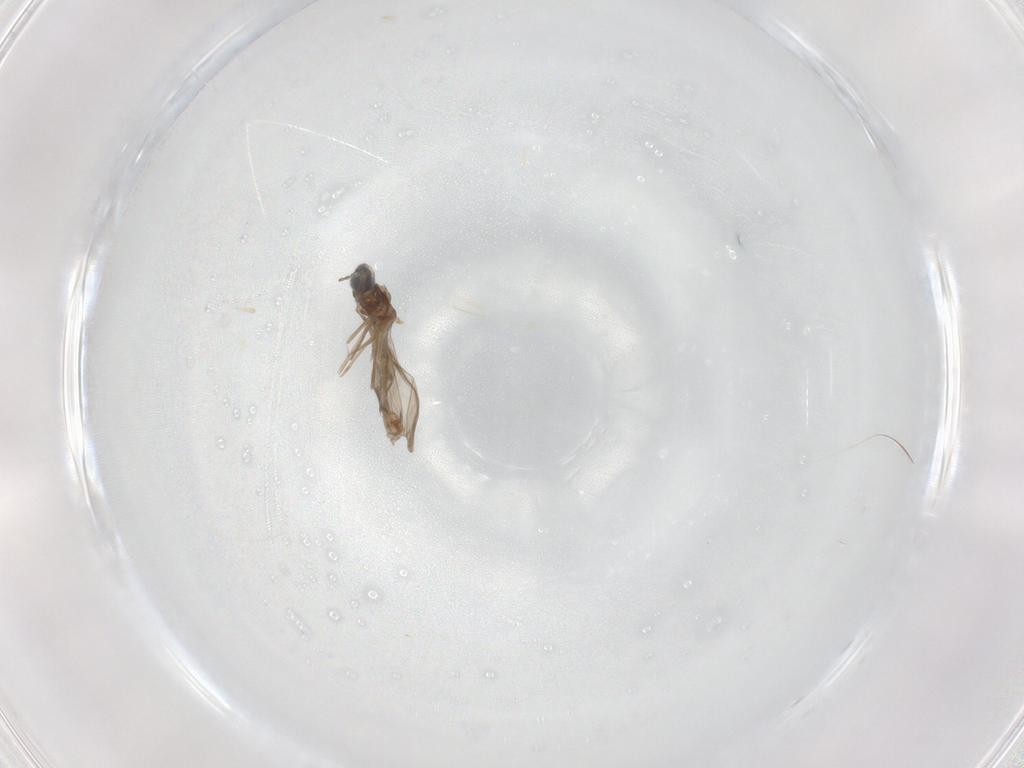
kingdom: Animalia
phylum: Arthropoda
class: Insecta
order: Diptera
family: Cecidomyiidae
